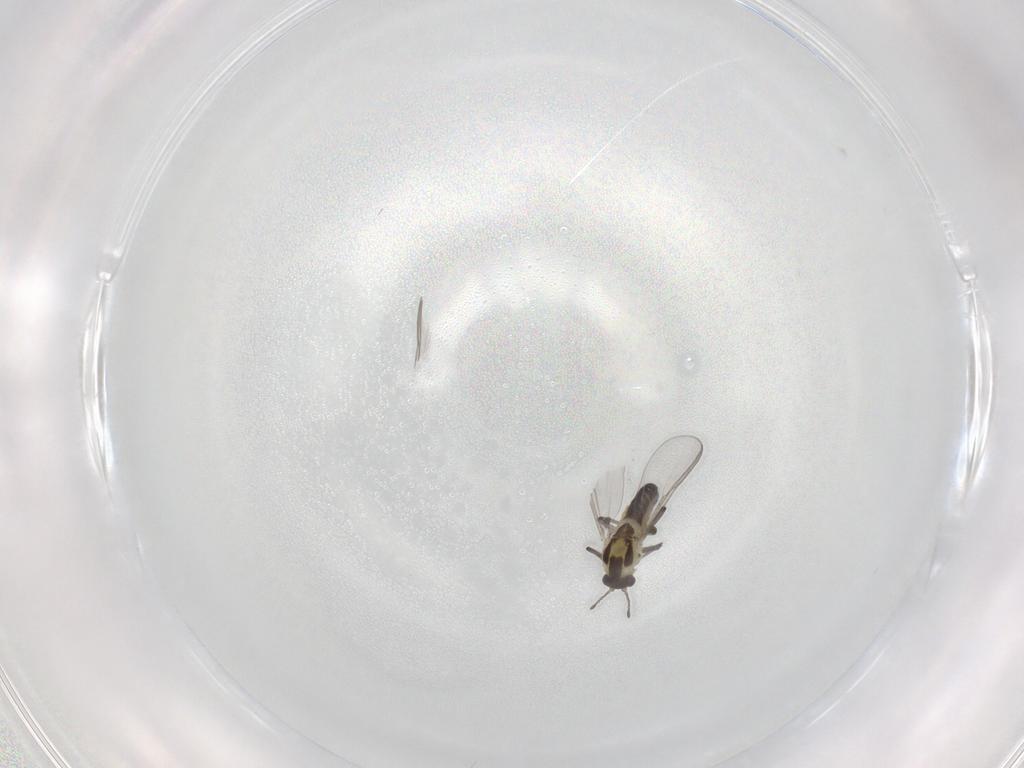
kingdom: Animalia
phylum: Arthropoda
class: Insecta
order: Diptera
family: Chironomidae
